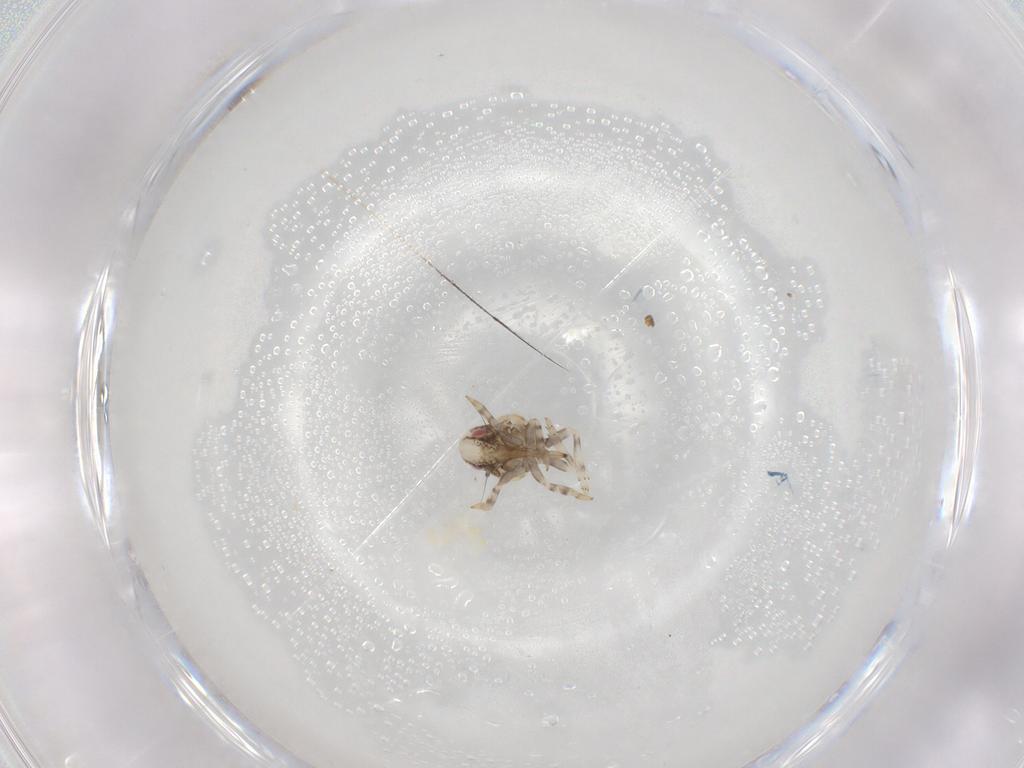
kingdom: Animalia
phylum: Arthropoda
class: Insecta
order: Hemiptera
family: Acanaloniidae
